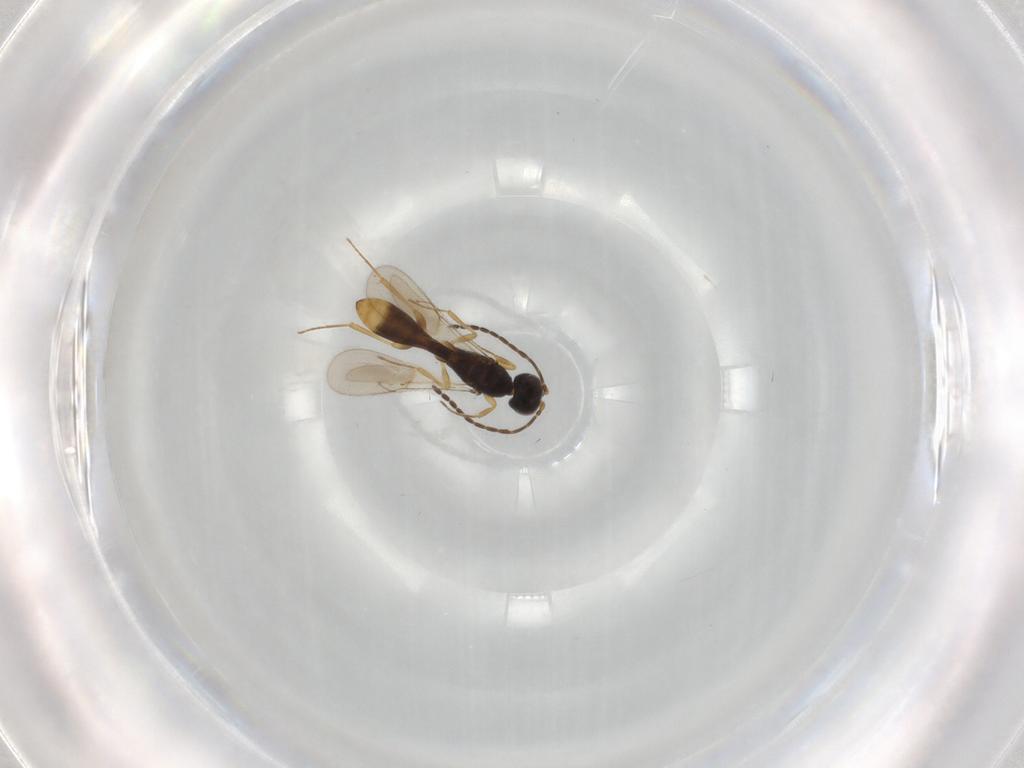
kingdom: Animalia
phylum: Arthropoda
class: Insecta
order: Hymenoptera
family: Scelionidae
